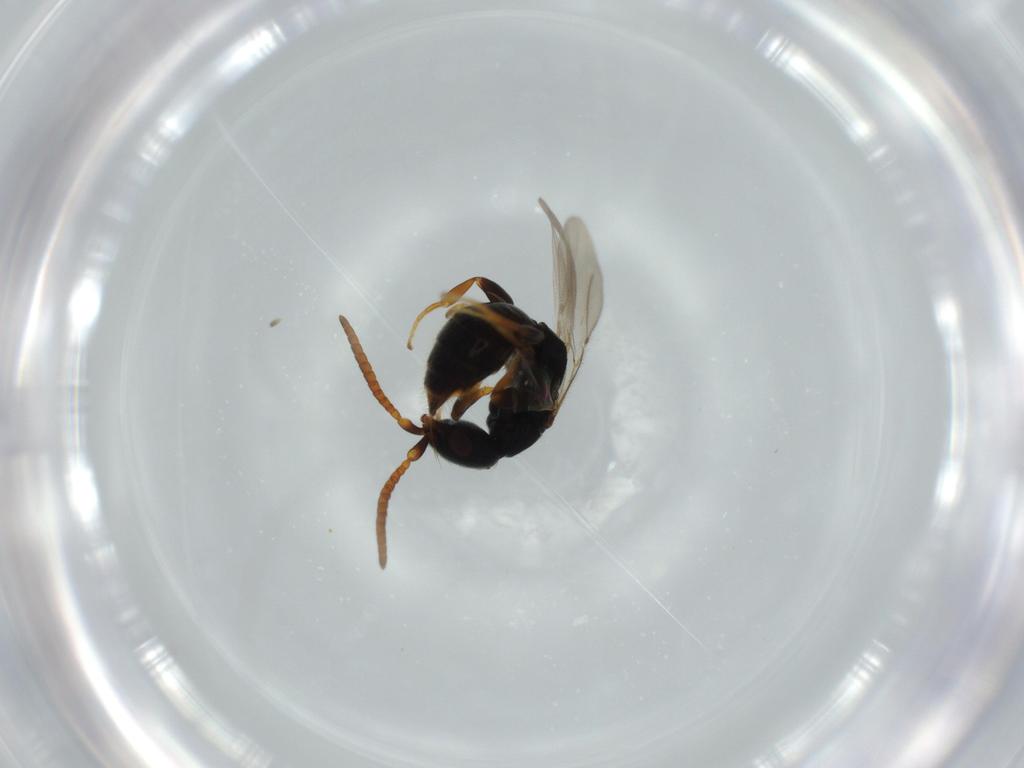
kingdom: Animalia
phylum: Arthropoda
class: Insecta
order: Hymenoptera
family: Bethylidae
